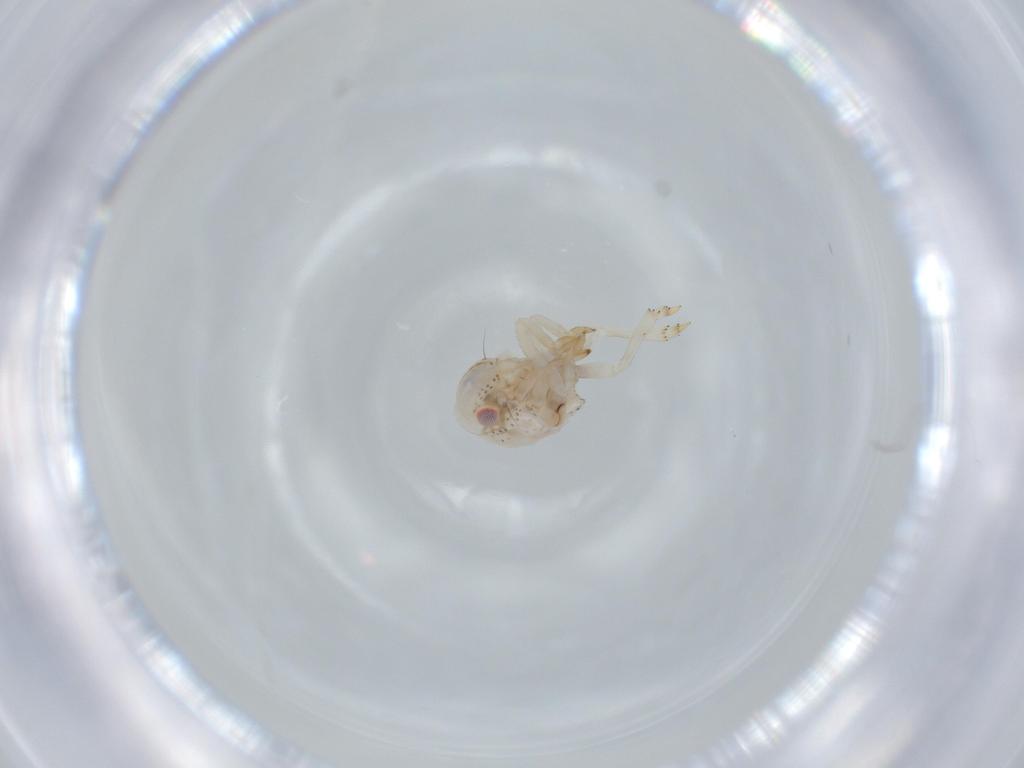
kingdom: Animalia
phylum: Arthropoda
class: Insecta
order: Hemiptera
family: Acanaloniidae
